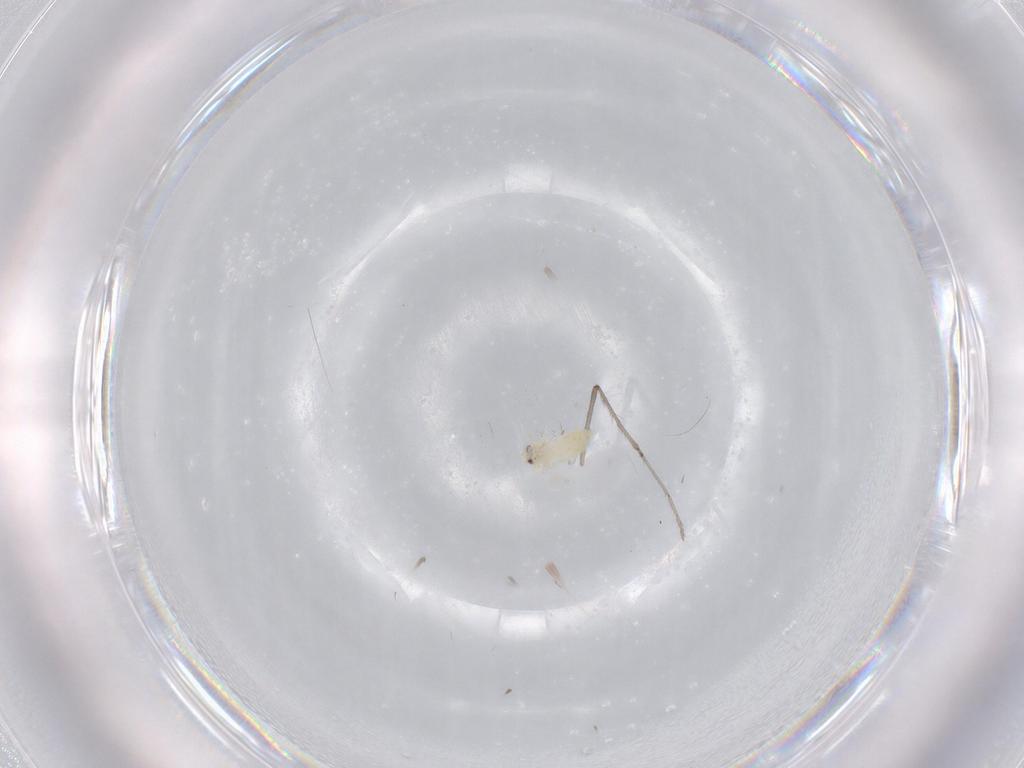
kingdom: Animalia
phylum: Arthropoda
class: Insecta
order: Hemiptera
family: Aleyrodidae
